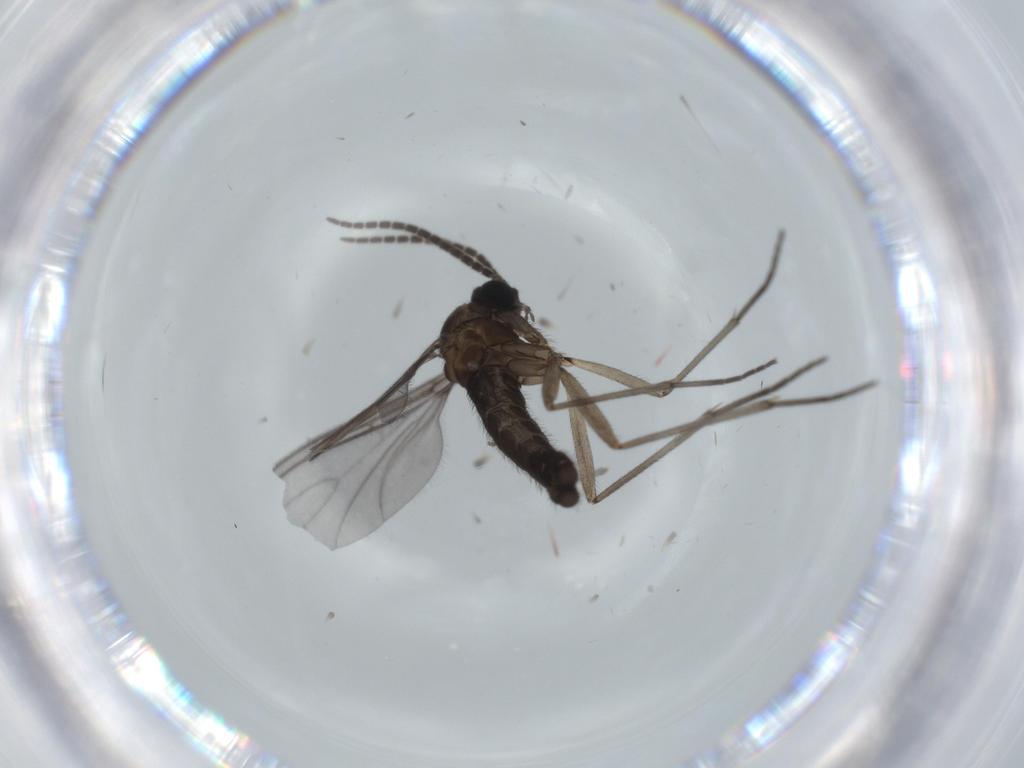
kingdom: Animalia
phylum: Arthropoda
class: Insecta
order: Diptera
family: Sciaridae
